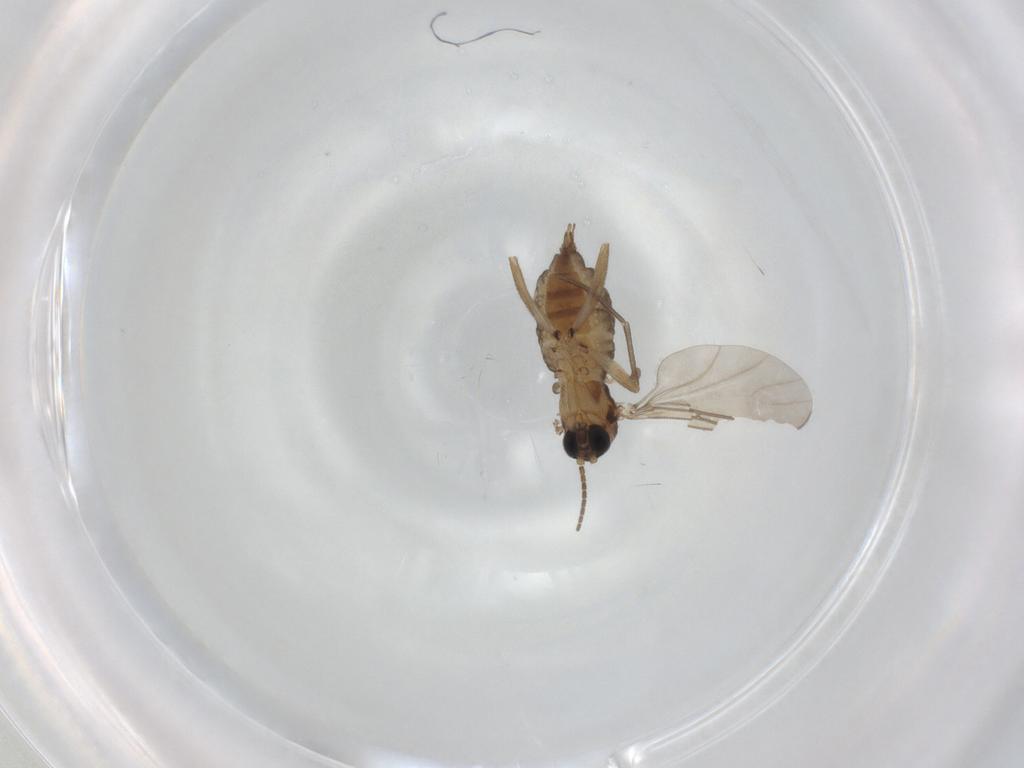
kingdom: Animalia
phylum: Arthropoda
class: Insecta
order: Diptera
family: Sciaridae
